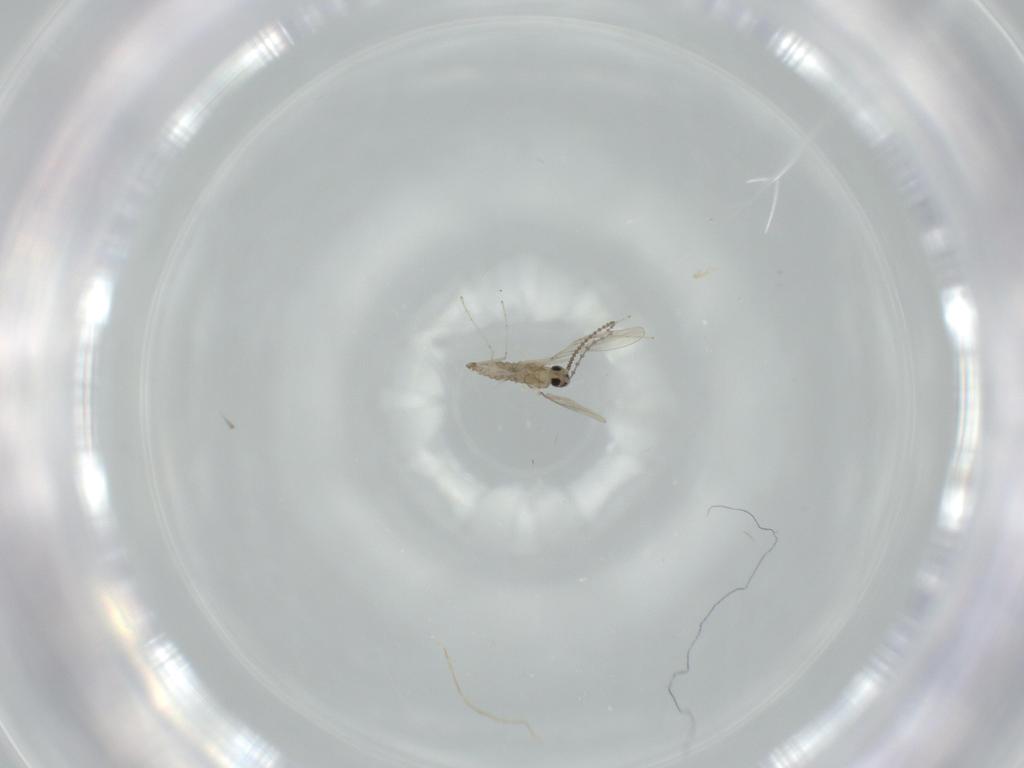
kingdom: Animalia
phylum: Arthropoda
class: Insecta
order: Diptera
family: Cecidomyiidae
